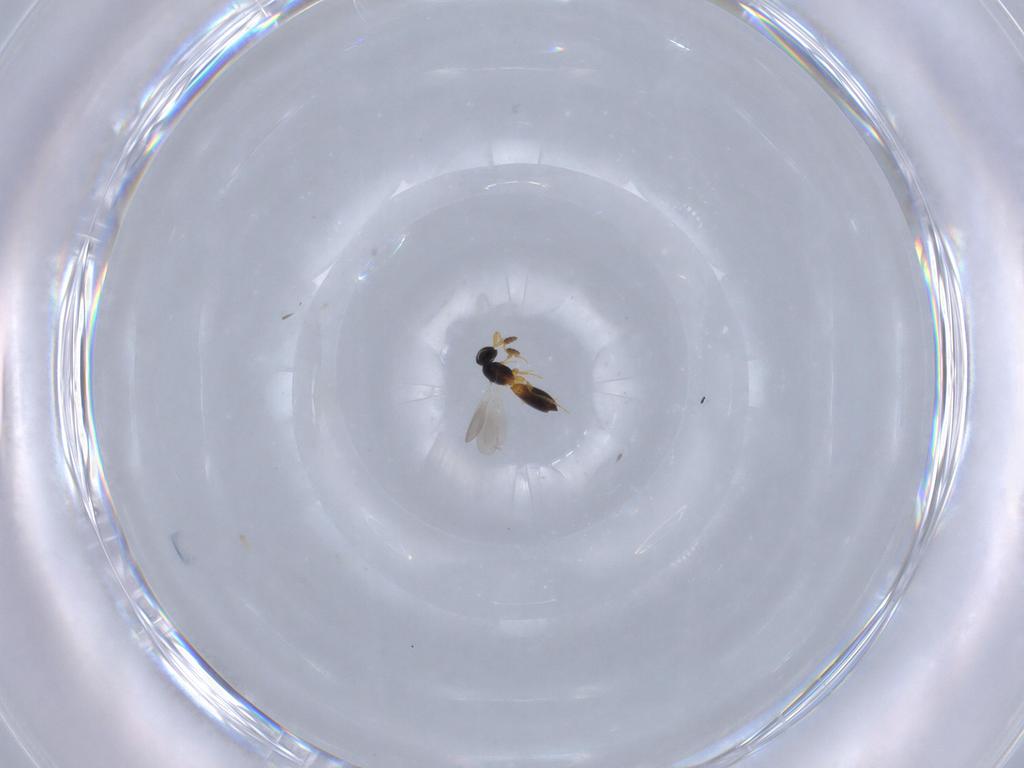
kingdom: Animalia
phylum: Arthropoda
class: Insecta
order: Hymenoptera
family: Platygastridae
